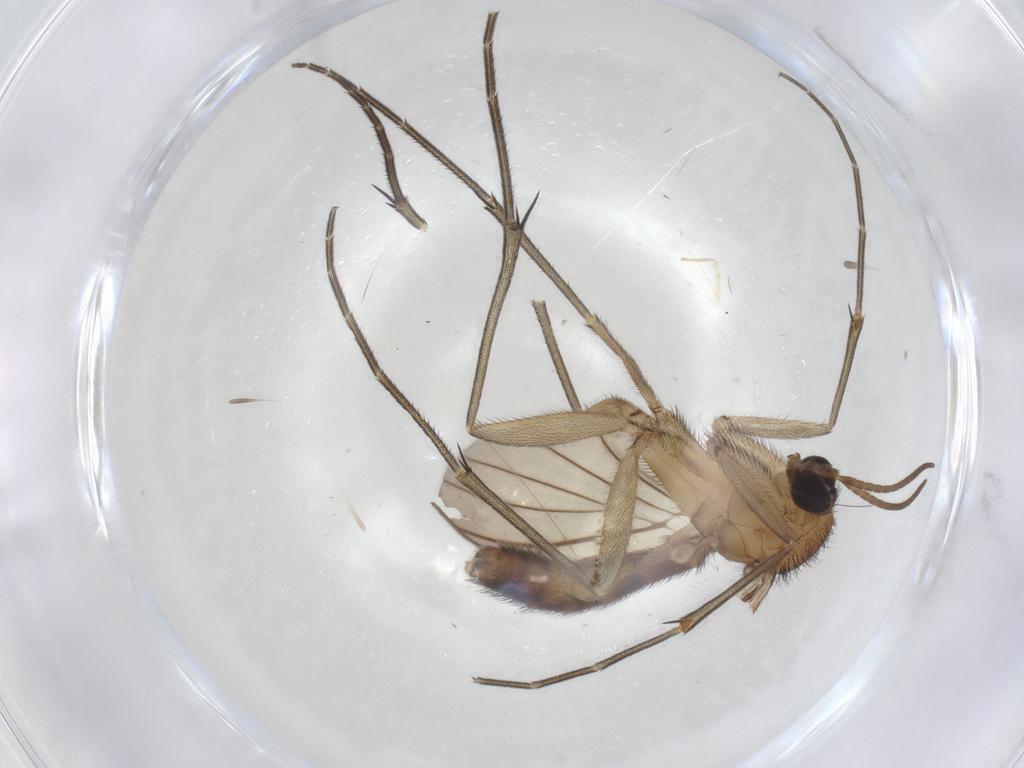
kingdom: Animalia
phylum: Arthropoda
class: Insecta
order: Diptera
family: Keroplatidae
